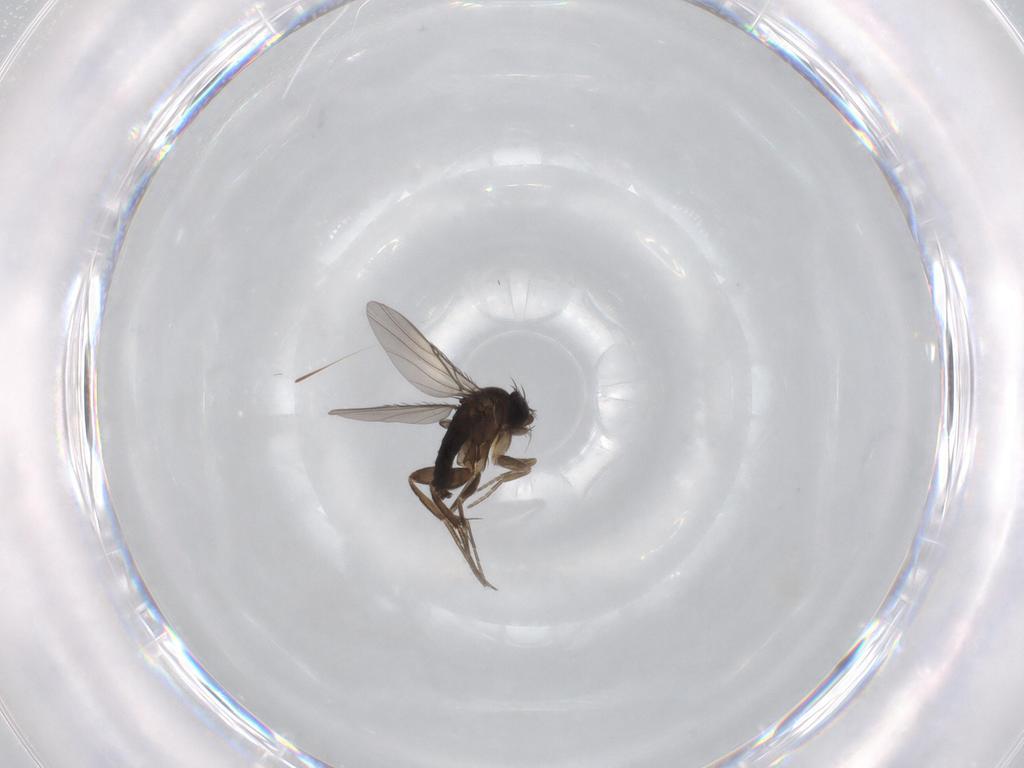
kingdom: Animalia
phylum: Arthropoda
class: Insecta
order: Diptera
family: Phoridae
